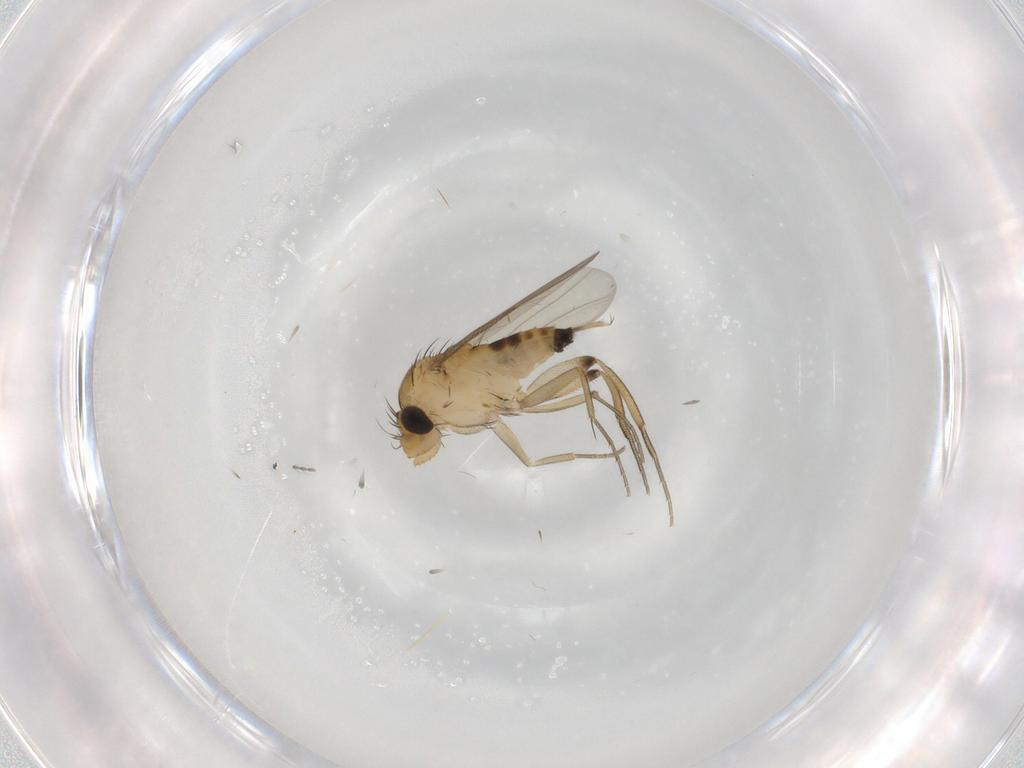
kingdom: Animalia
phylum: Arthropoda
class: Insecta
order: Diptera
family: Phoridae
